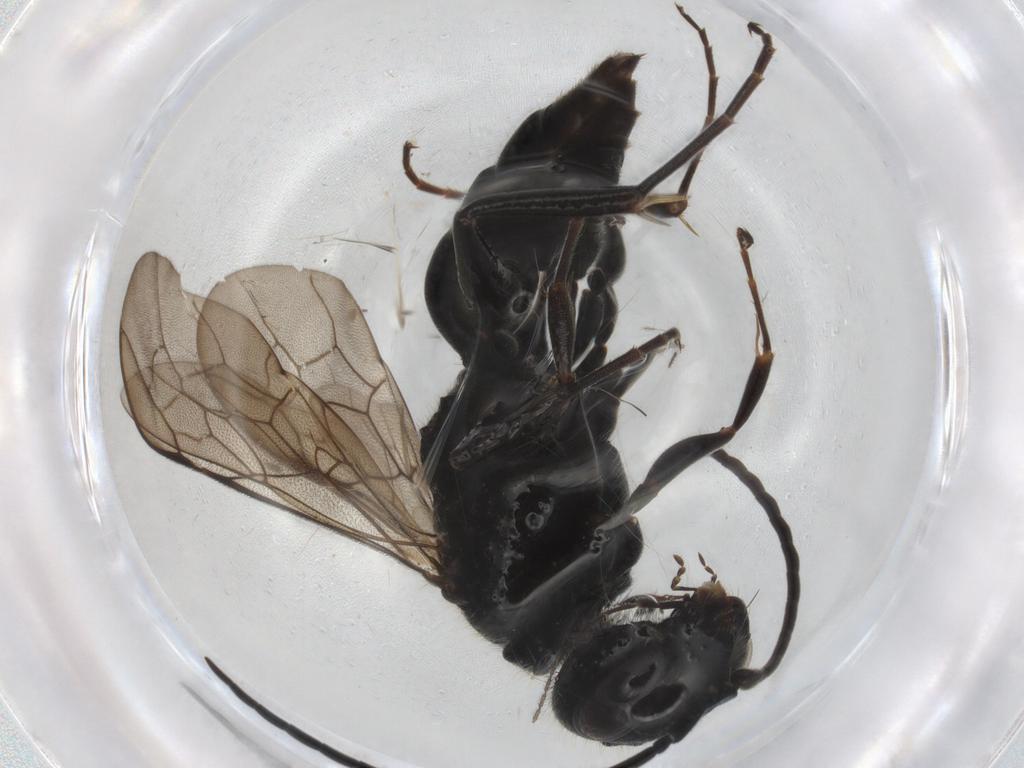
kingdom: Animalia
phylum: Arthropoda
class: Insecta
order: Hymenoptera
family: Ampulicidae
